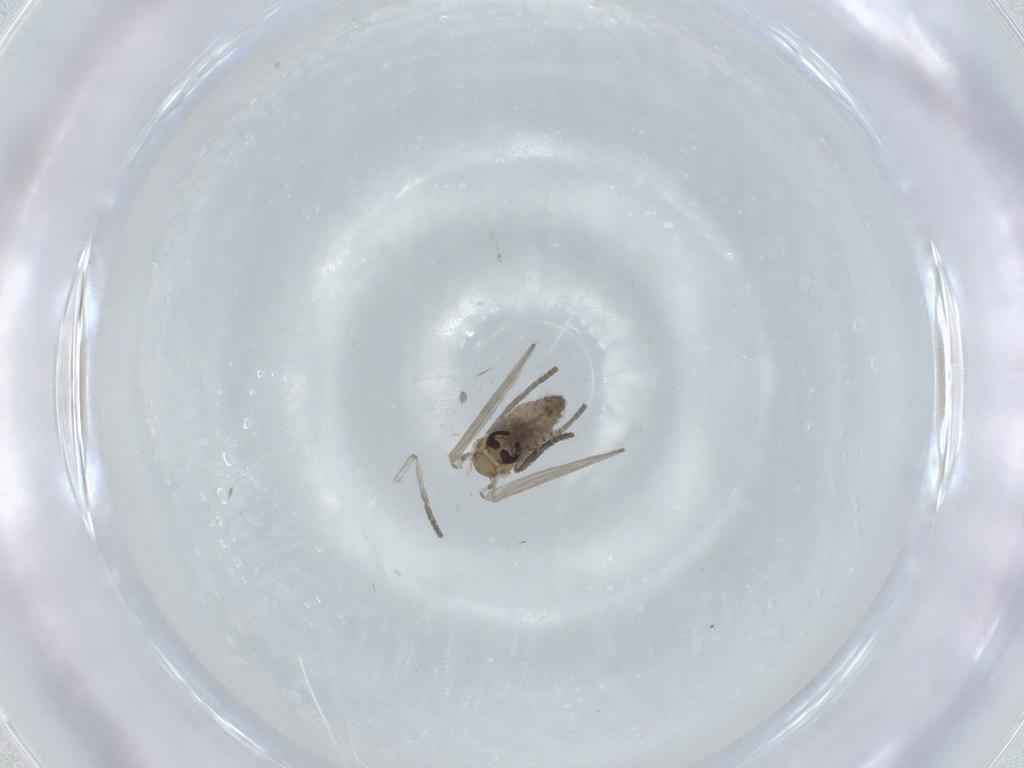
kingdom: Animalia
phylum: Arthropoda
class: Insecta
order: Diptera
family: Psychodidae
